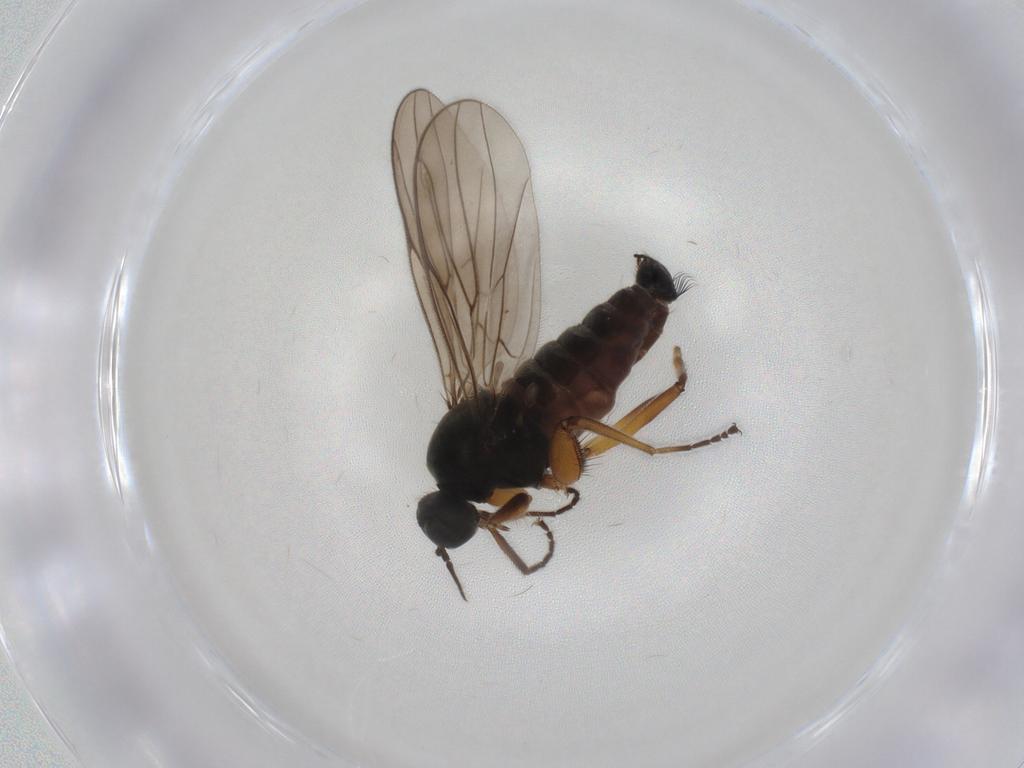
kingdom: Animalia
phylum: Arthropoda
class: Insecta
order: Diptera
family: Hybotidae
